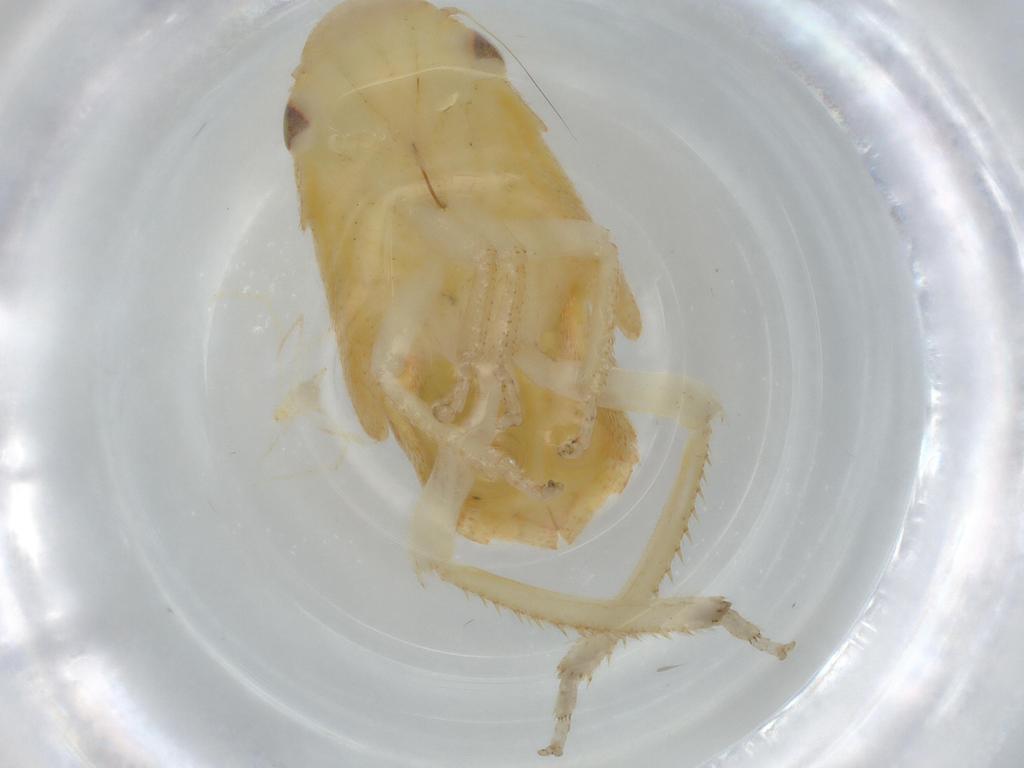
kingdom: Animalia
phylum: Arthropoda
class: Insecta
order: Hemiptera
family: Cicadellidae
